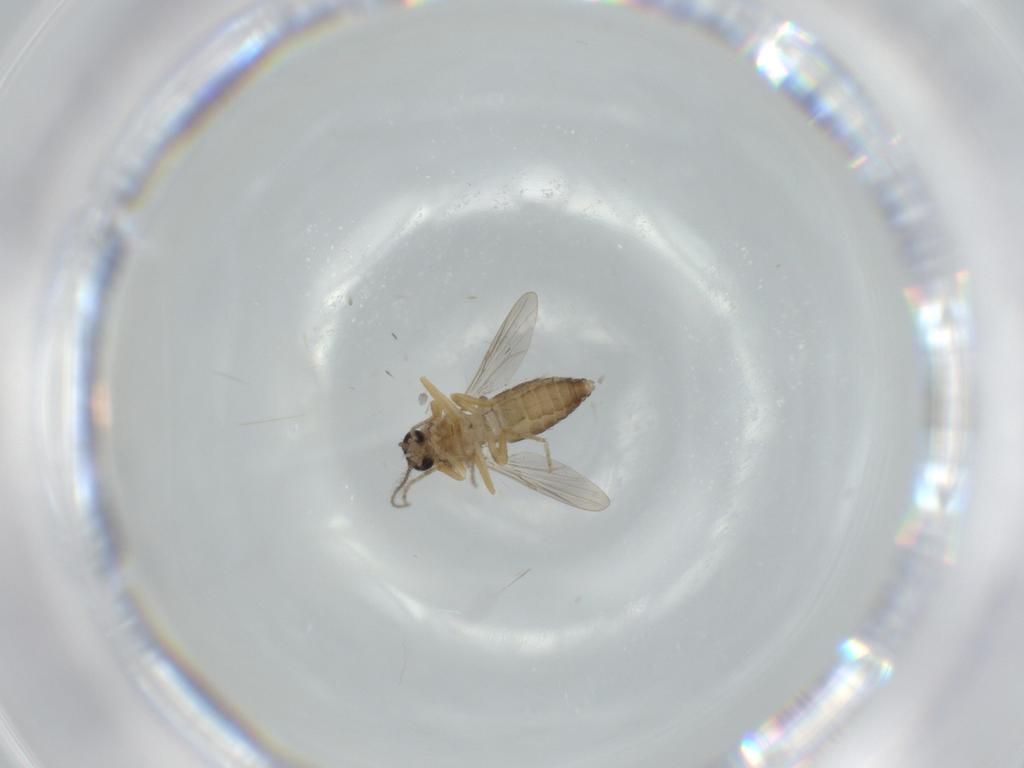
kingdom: Animalia
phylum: Arthropoda
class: Insecta
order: Diptera
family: Ceratopogonidae
